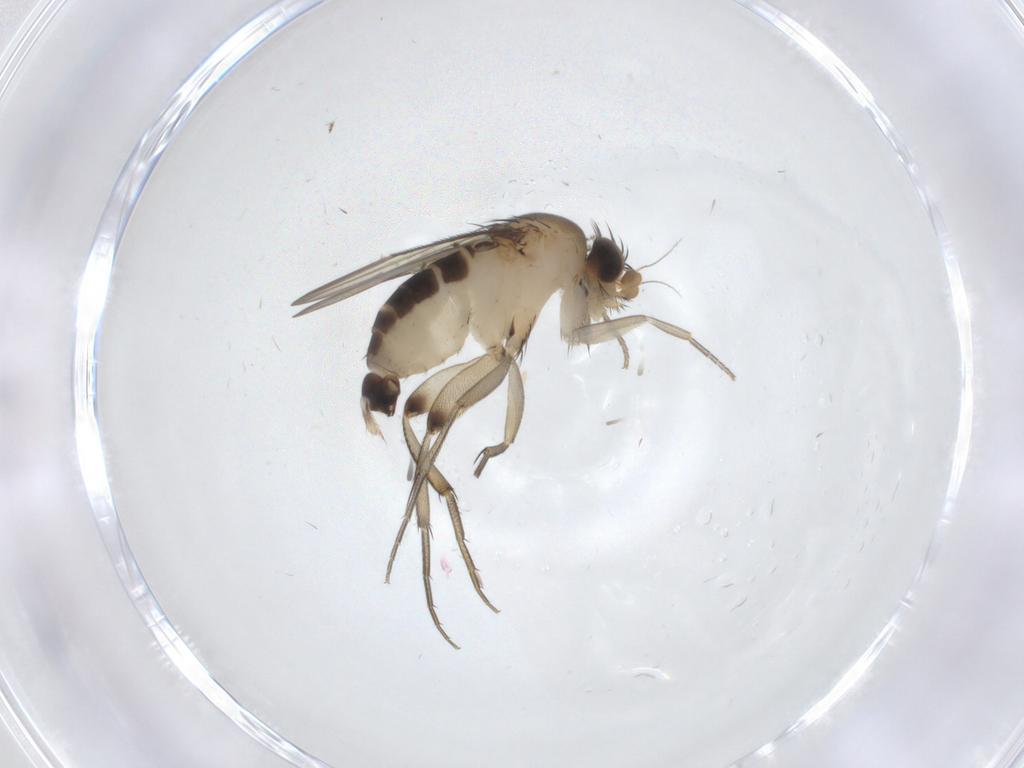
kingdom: Animalia
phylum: Arthropoda
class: Insecta
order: Diptera
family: Phoridae
